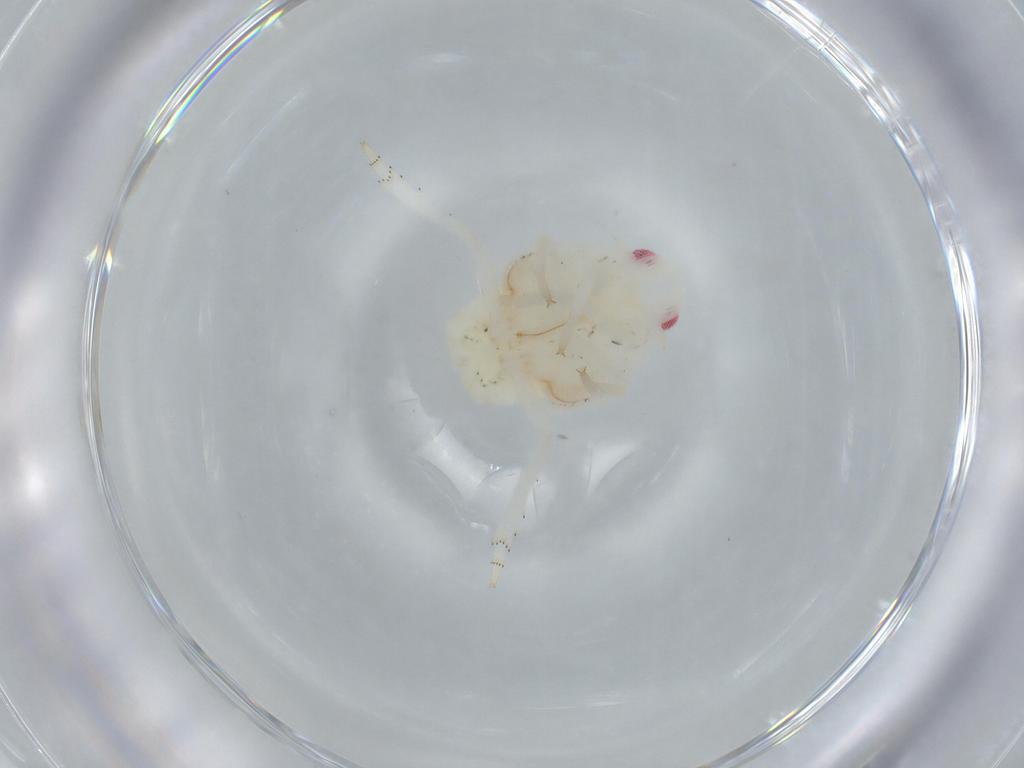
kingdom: Animalia
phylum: Arthropoda
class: Insecta
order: Hemiptera
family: Flatidae
